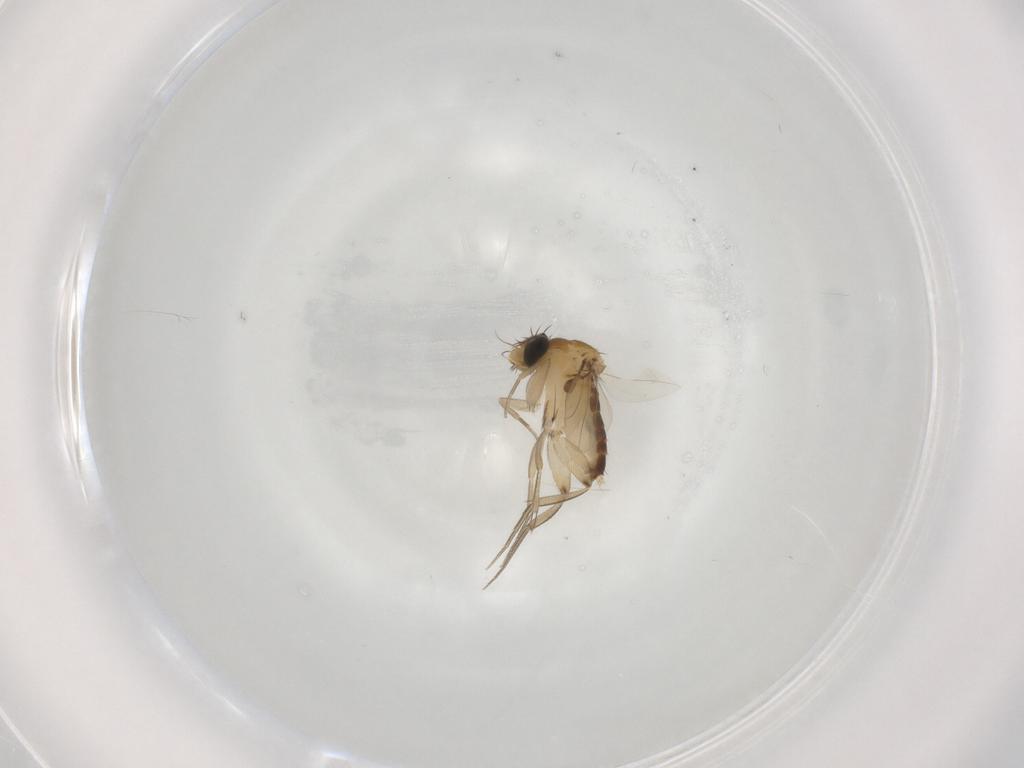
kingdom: Animalia
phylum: Arthropoda
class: Insecta
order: Diptera
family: Phoridae
